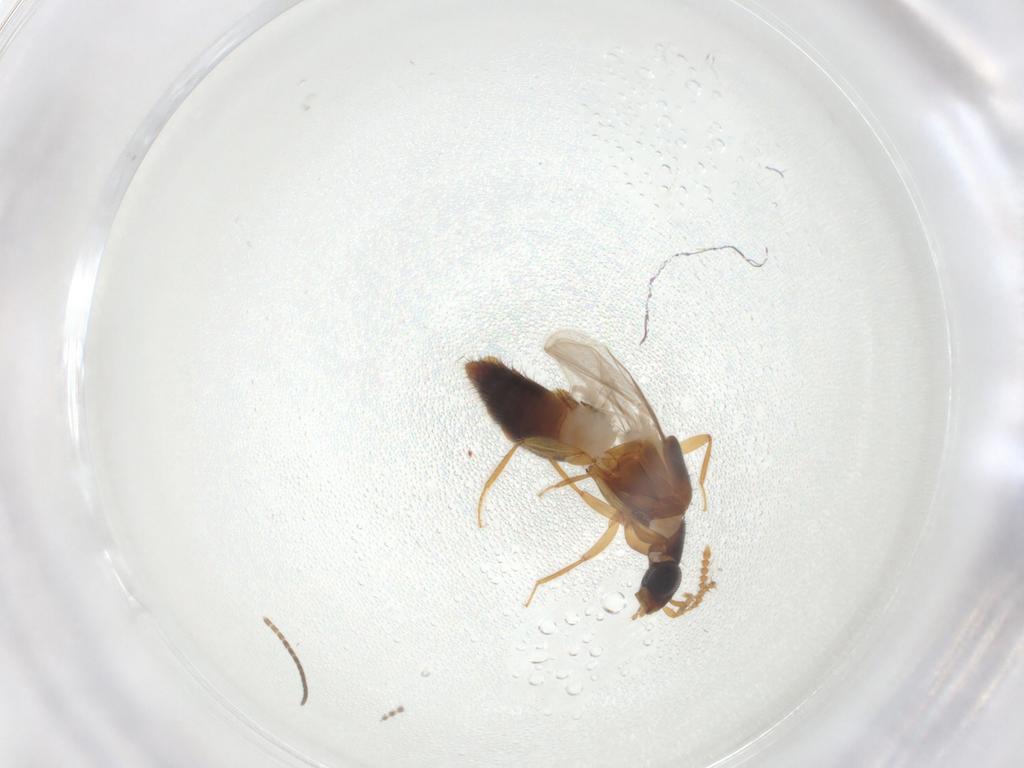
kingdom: Animalia
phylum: Arthropoda
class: Insecta
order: Coleoptera
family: Staphylinidae
